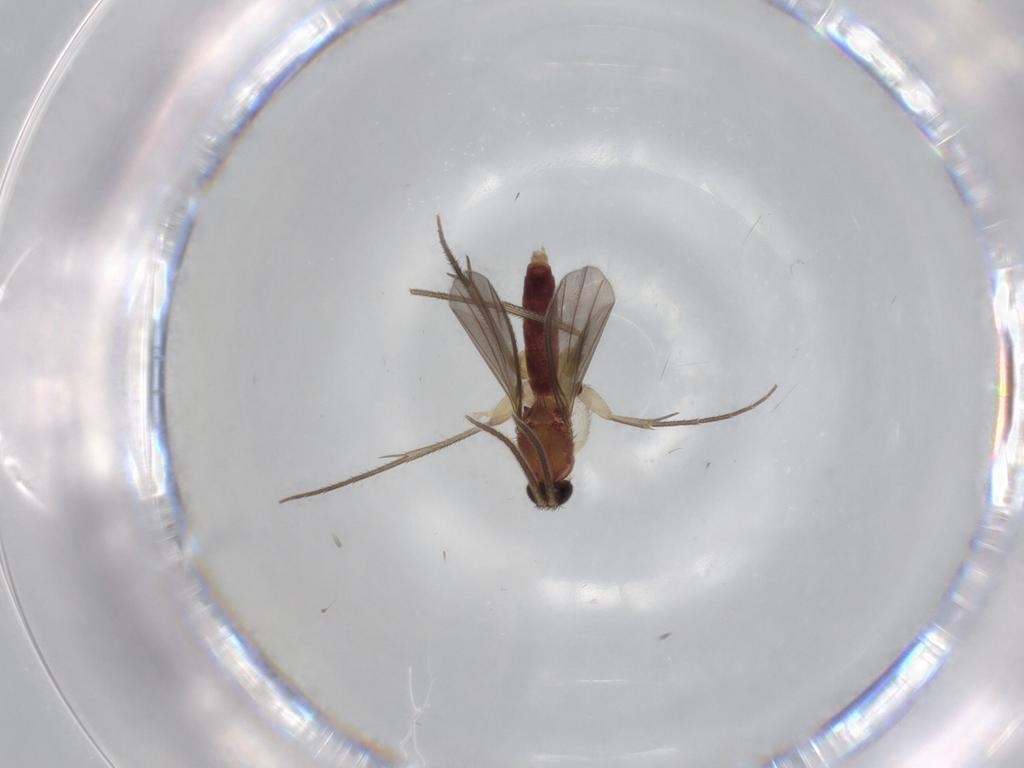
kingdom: Animalia
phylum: Arthropoda
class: Insecta
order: Diptera
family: Mycetophilidae
